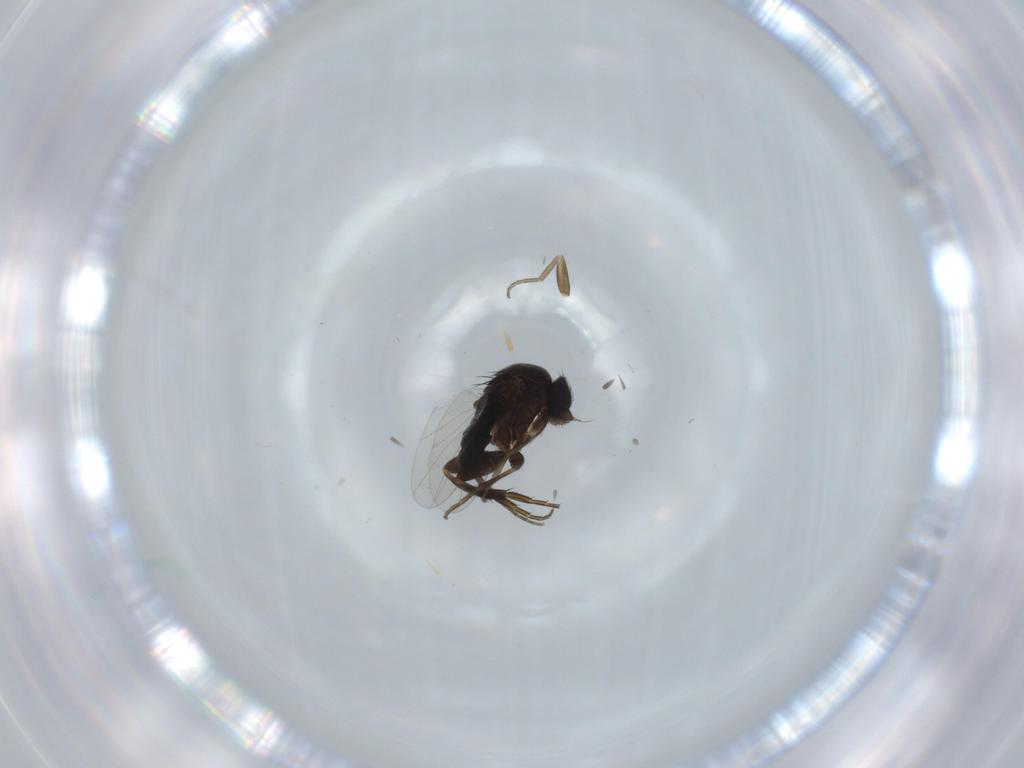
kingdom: Animalia
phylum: Arthropoda
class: Insecta
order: Diptera
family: Phoridae
